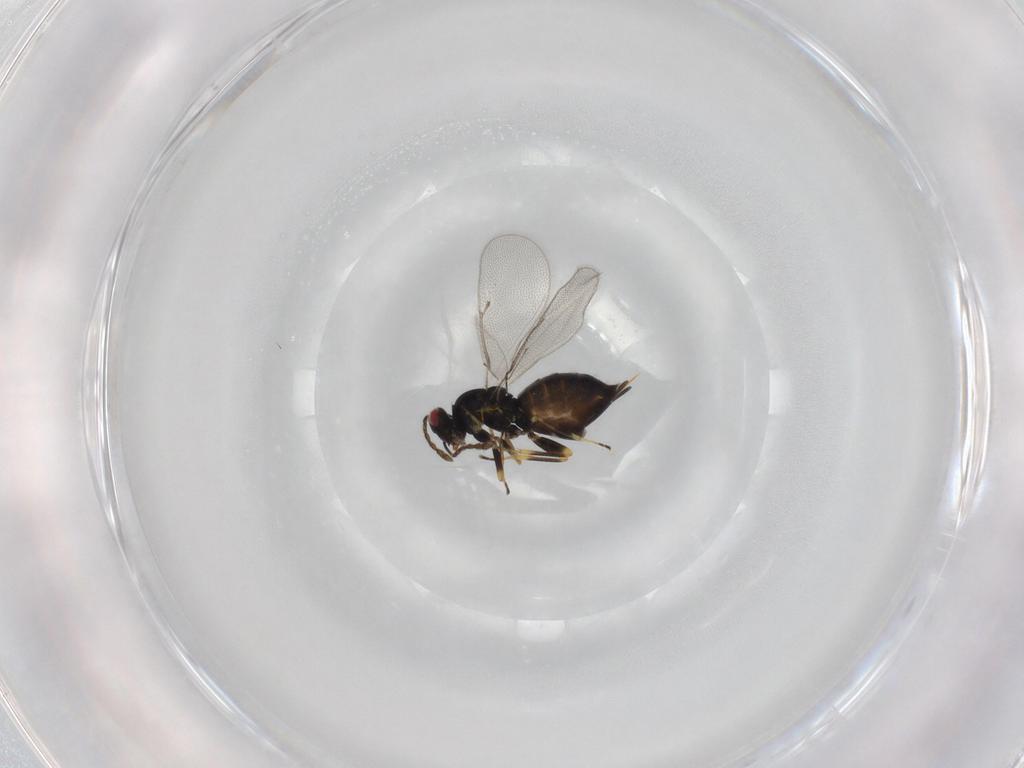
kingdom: Animalia
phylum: Arthropoda
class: Insecta
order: Hymenoptera
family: Eulophidae
